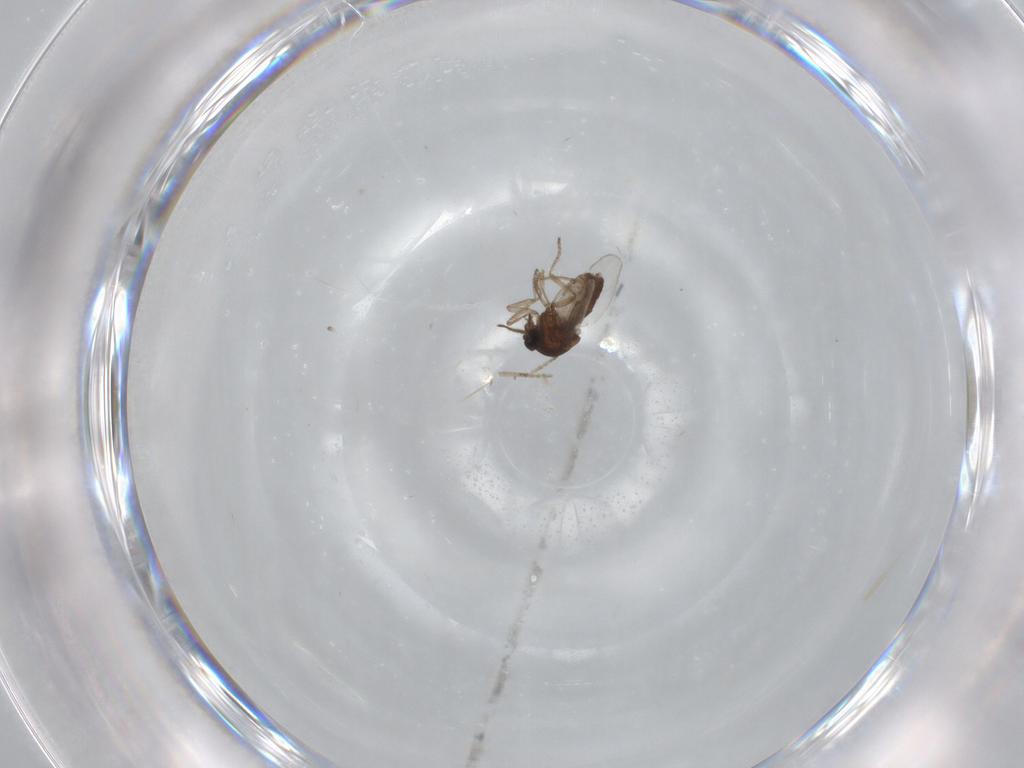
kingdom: Animalia
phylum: Arthropoda
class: Insecta
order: Diptera
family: Ceratopogonidae
